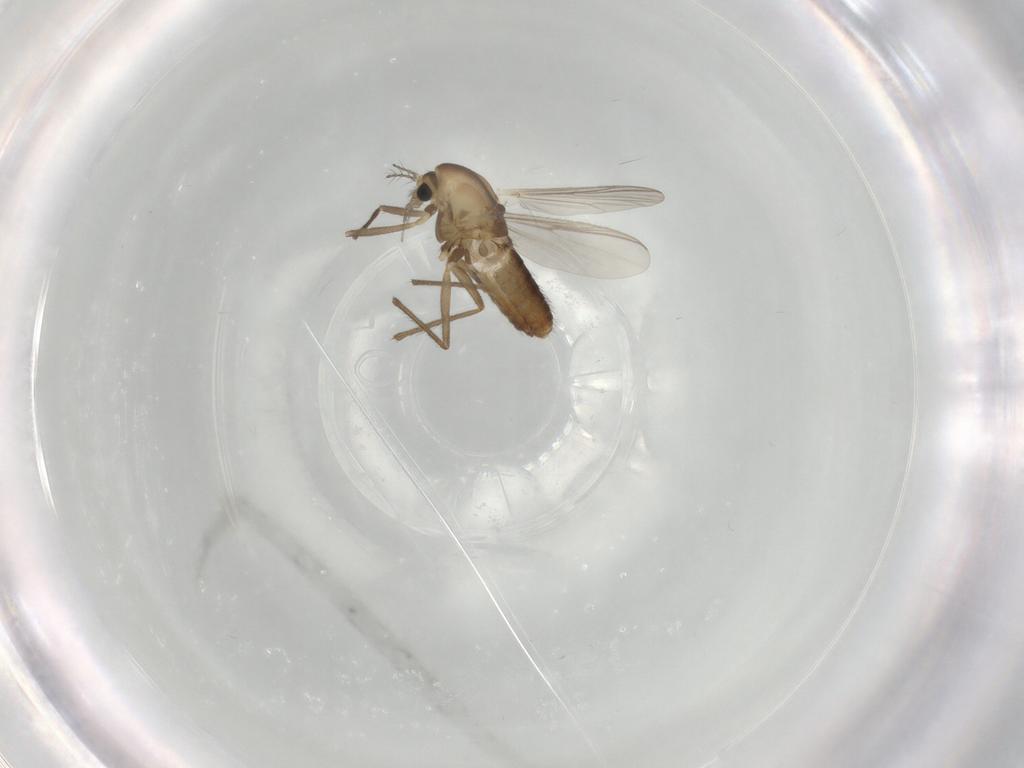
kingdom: Animalia
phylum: Arthropoda
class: Insecta
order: Diptera
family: Chironomidae
